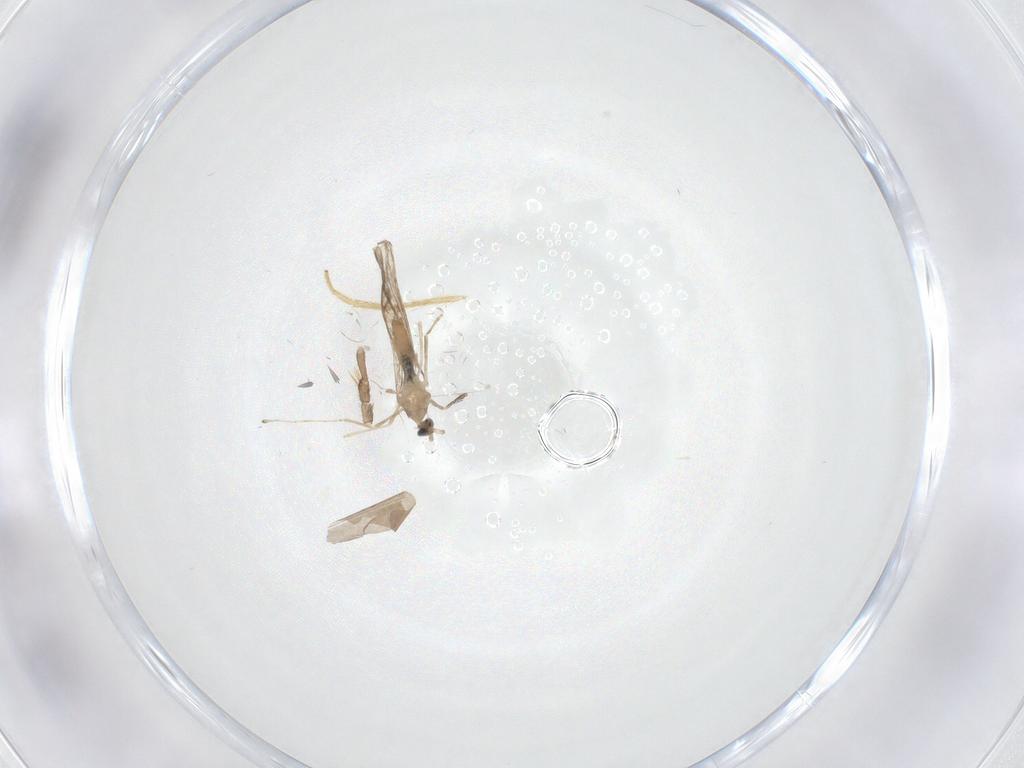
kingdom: Animalia
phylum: Arthropoda
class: Insecta
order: Diptera
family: Cecidomyiidae
